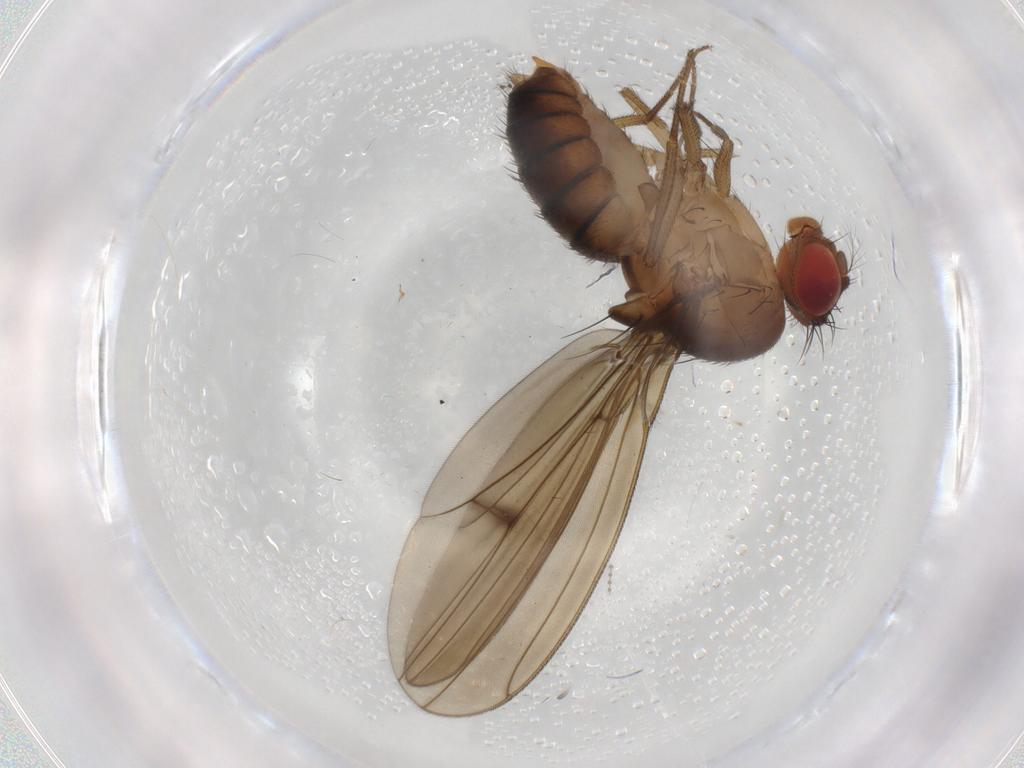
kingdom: Animalia
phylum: Arthropoda
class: Insecta
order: Diptera
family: Drosophilidae
